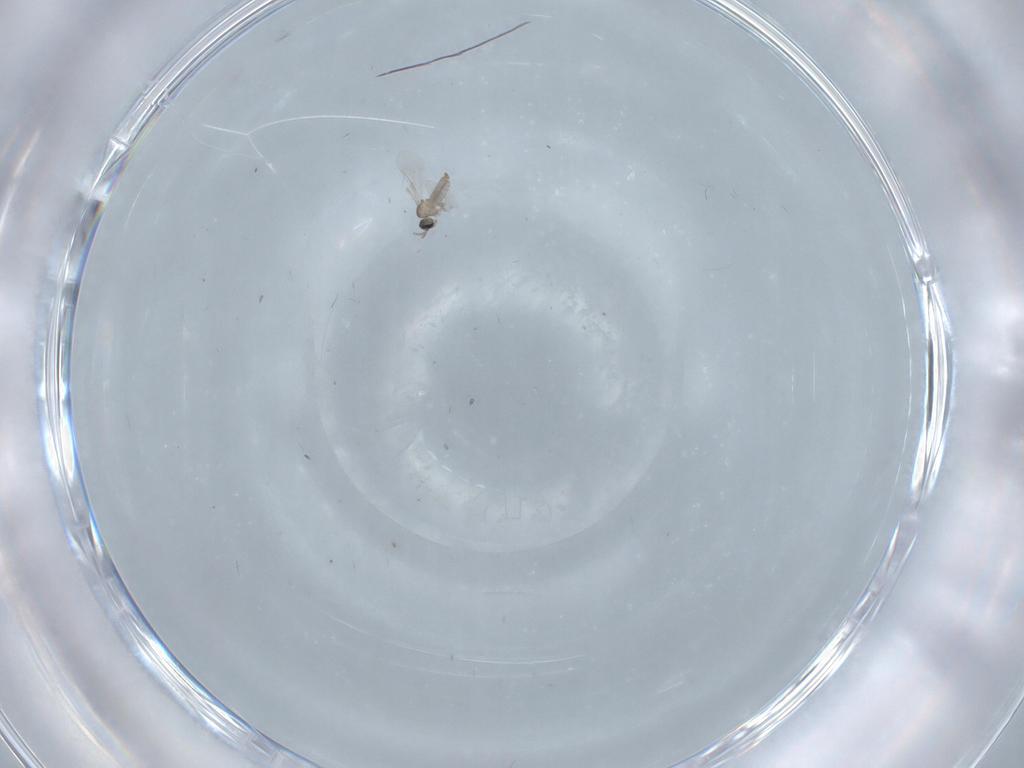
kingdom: Animalia
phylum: Arthropoda
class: Insecta
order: Diptera
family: Cecidomyiidae
